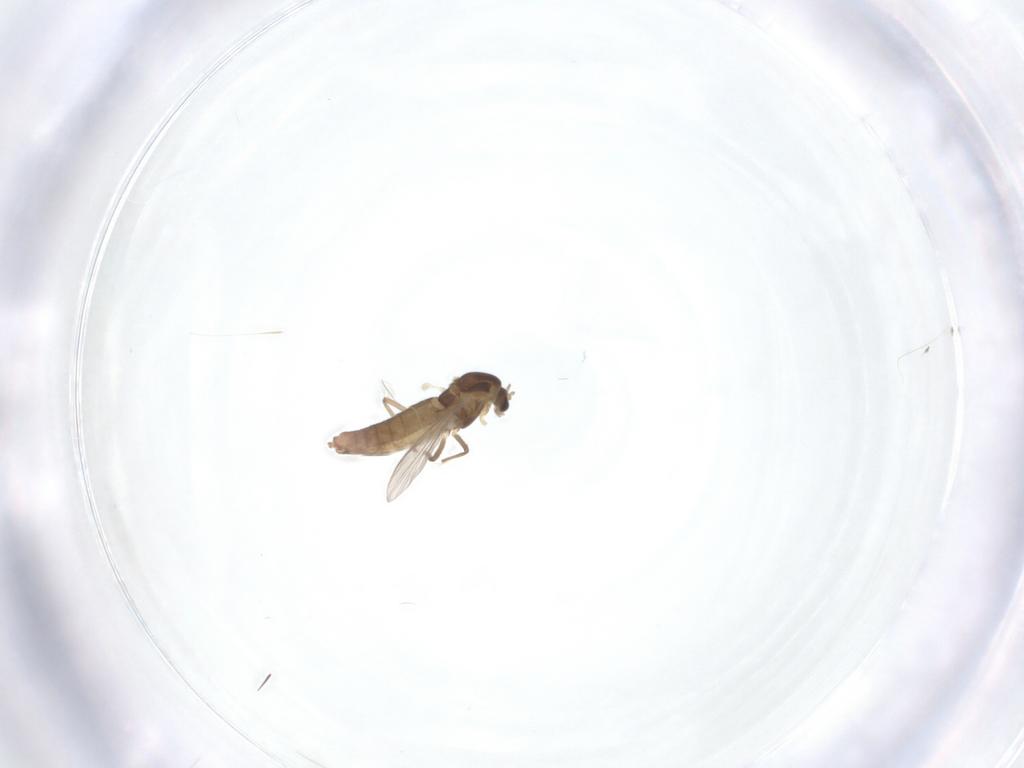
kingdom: Animalia
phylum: Arthropoda
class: Insecta
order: Diptera
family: Chironomidae
